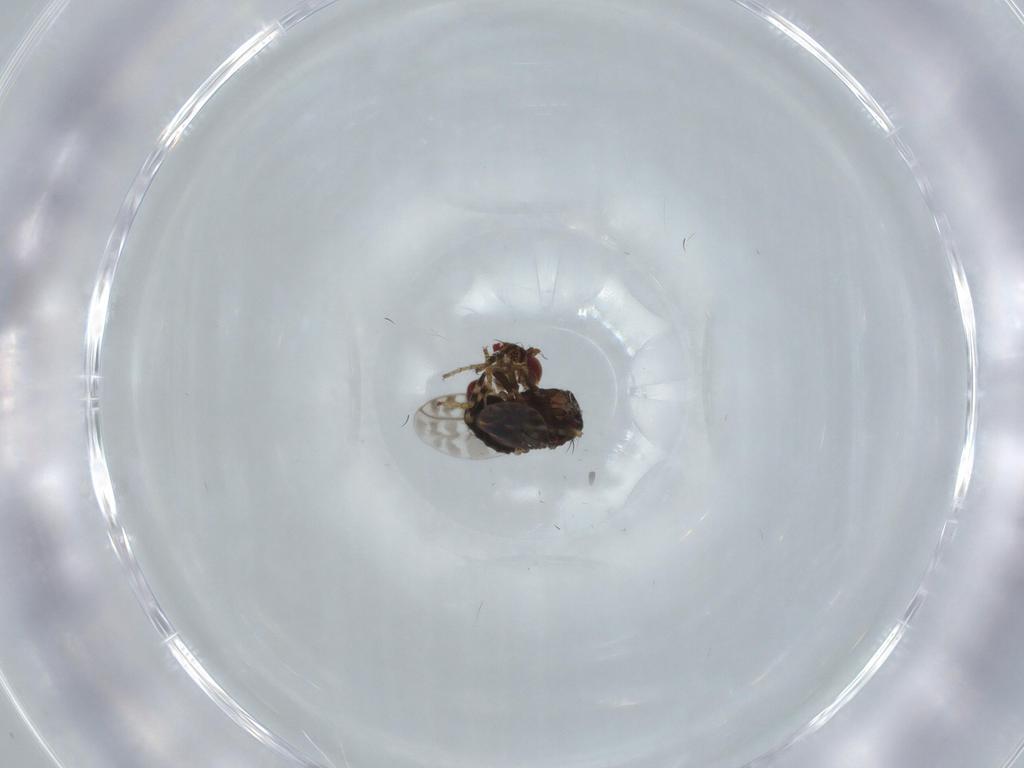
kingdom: Animalia
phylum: Arthropoda
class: Insecta
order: Diptera
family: Sphaeroceridae
